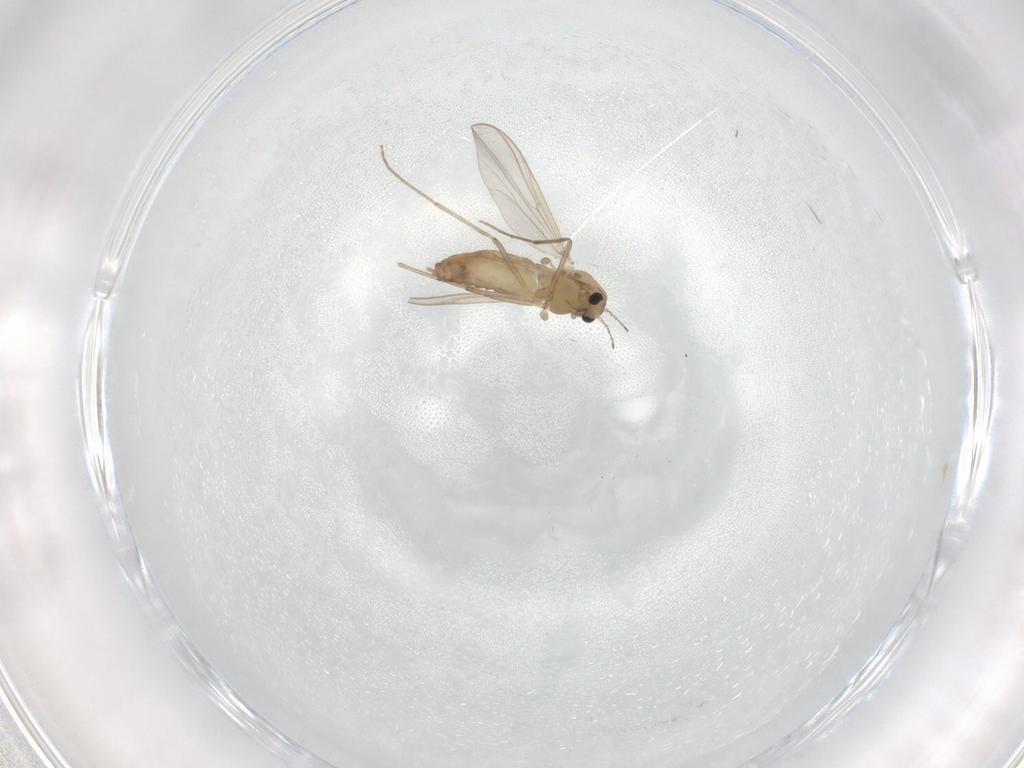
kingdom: Animalia
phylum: Arthropoda
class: Insecta
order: Diptera
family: Chironomidae
